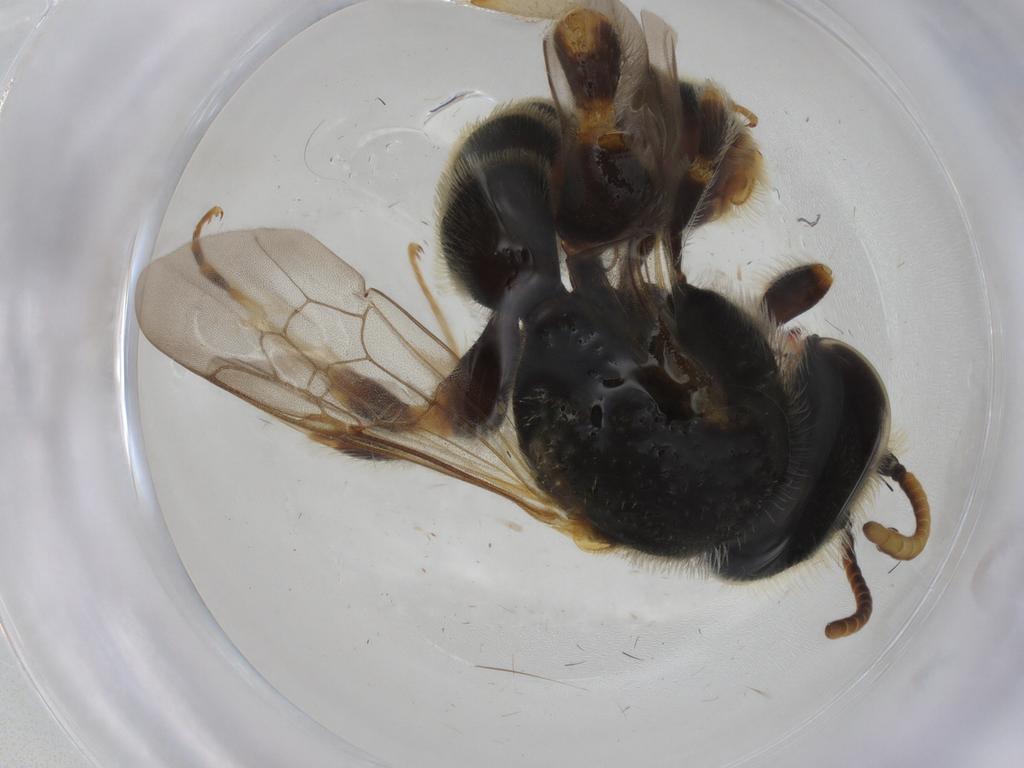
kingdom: Animalia
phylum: Arthropoda
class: Insecta
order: Hymenoptera
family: Halictidae
